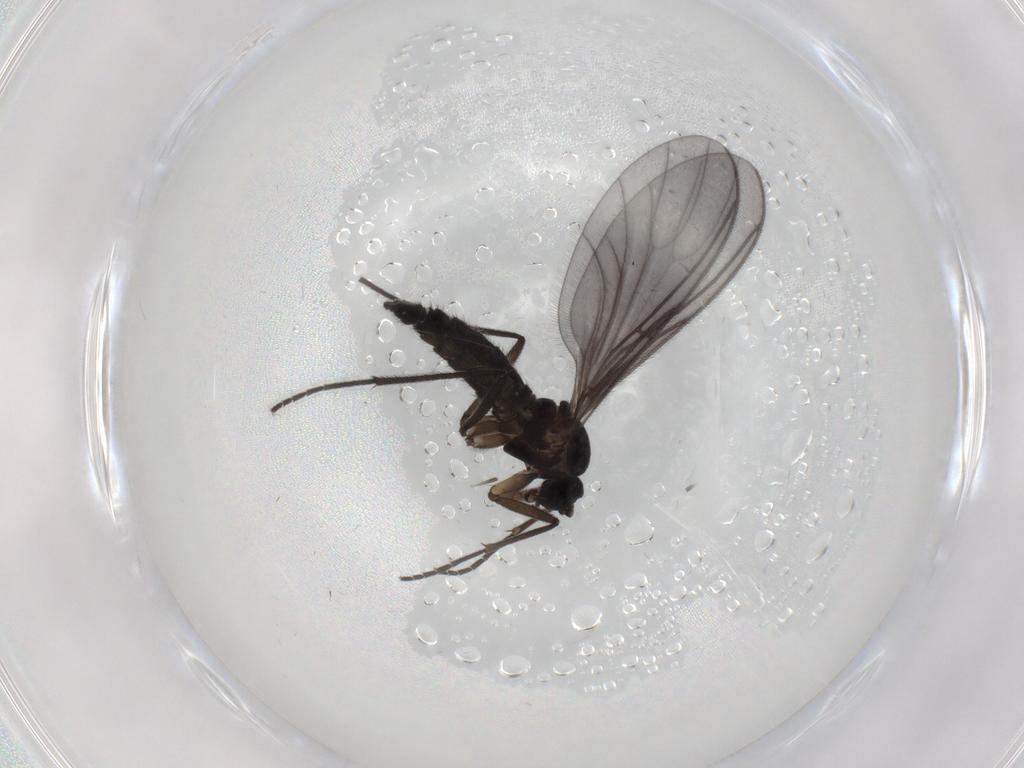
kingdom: Animalia
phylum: Arthropoda
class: Insecta
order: Diptera
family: Sciaridae
